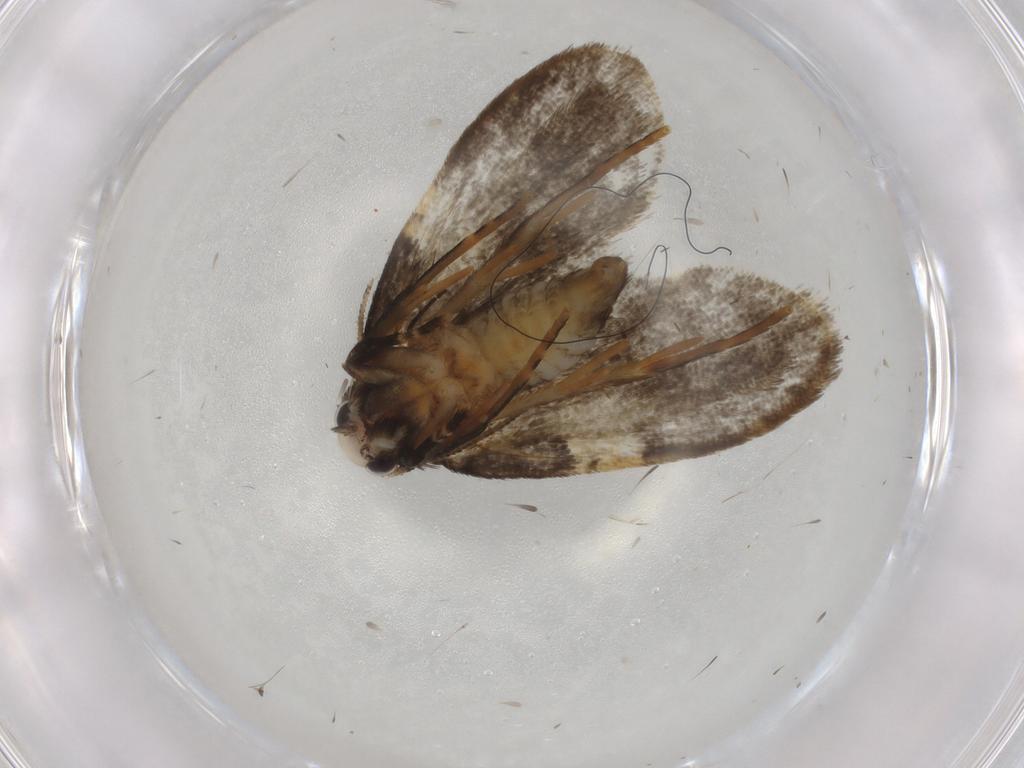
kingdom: Animalia
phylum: Arthropoda
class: Insecta
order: Lepidoptera
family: Psychidae
